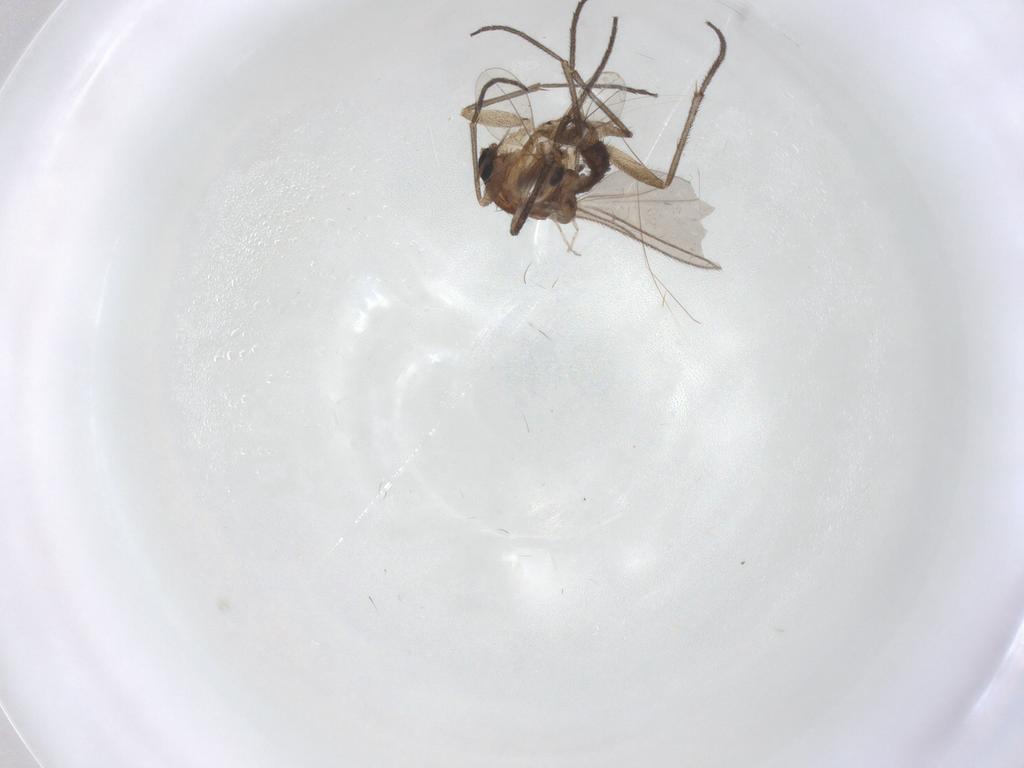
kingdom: Animalia
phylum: Arthropoda
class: Insecta
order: Diptera
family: Cecidomyiidae
